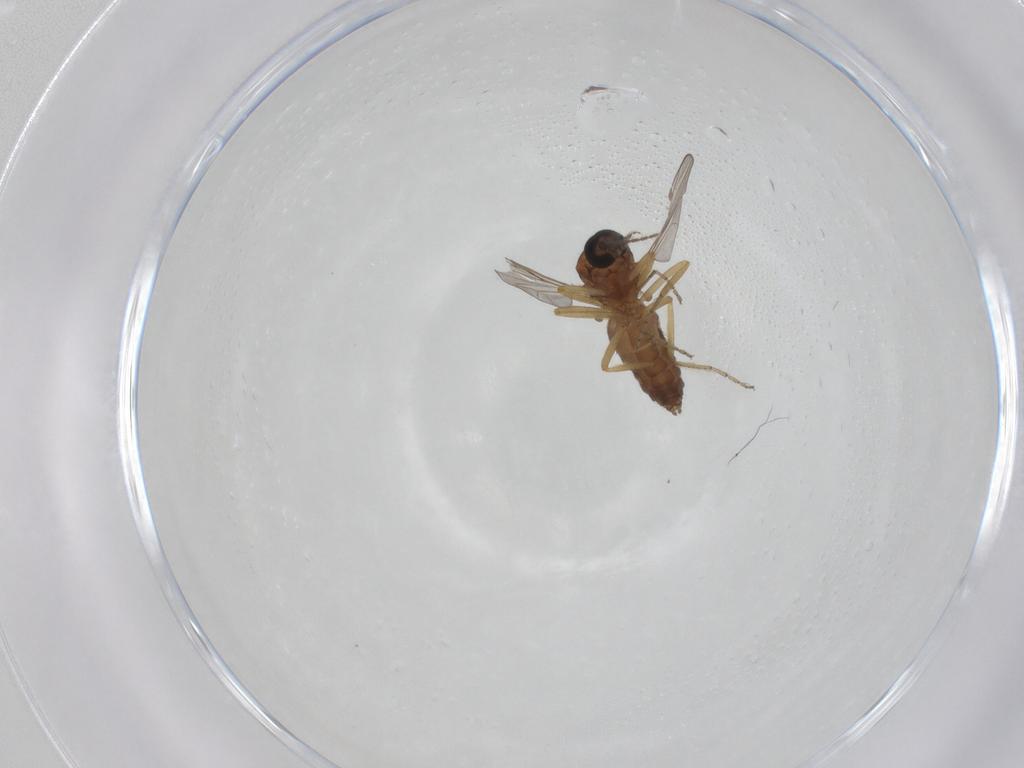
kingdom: Animalia
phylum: Arthropoda
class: Insecta
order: Diptera
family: Ceratopogonidae
